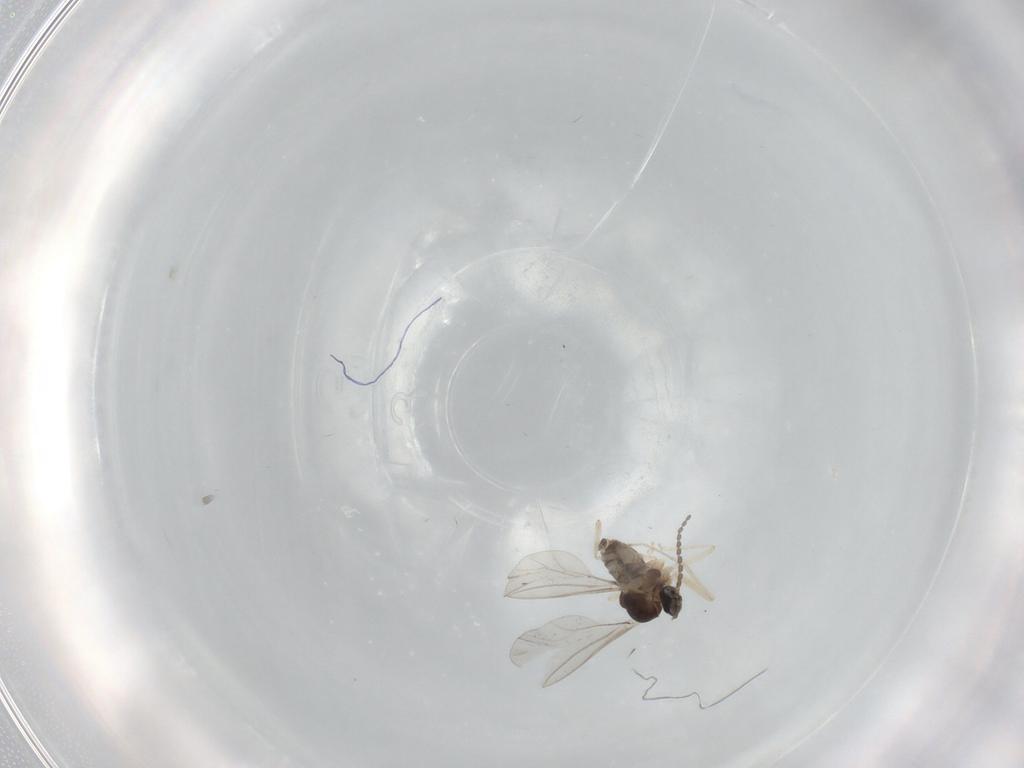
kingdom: Animalia
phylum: Arthropoda
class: Insecta
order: Diptera
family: Cecidomyiidae
